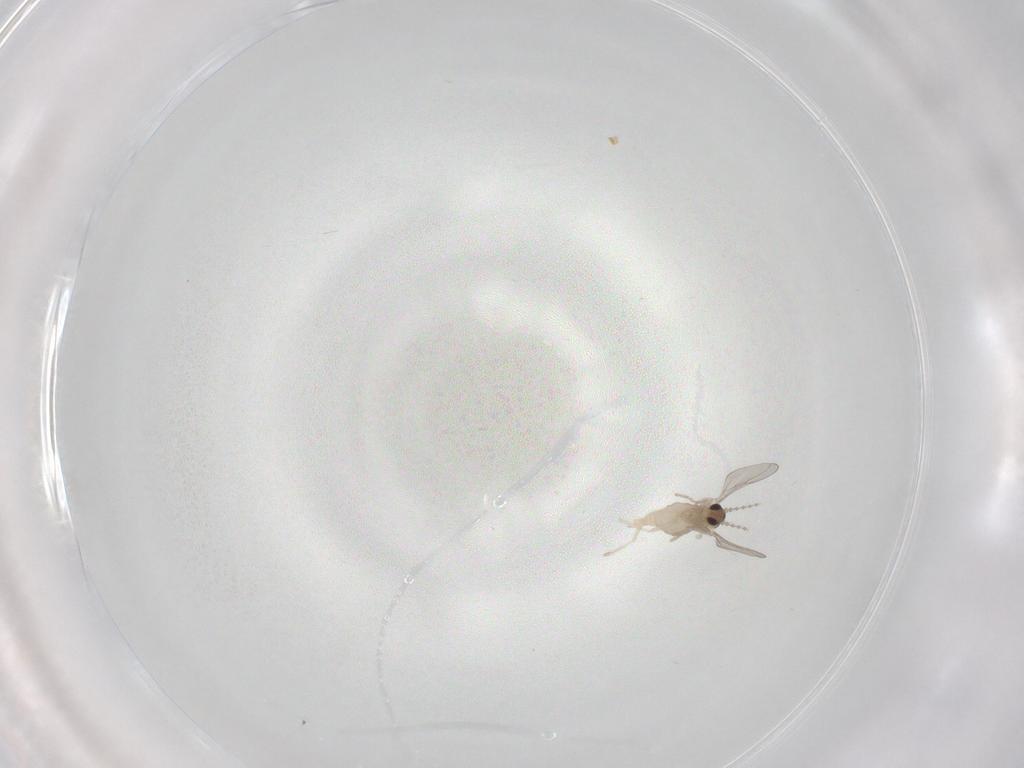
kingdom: Animalia
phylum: Arthropoda
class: Insecta
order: Diptera
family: Cecidomyiidae
